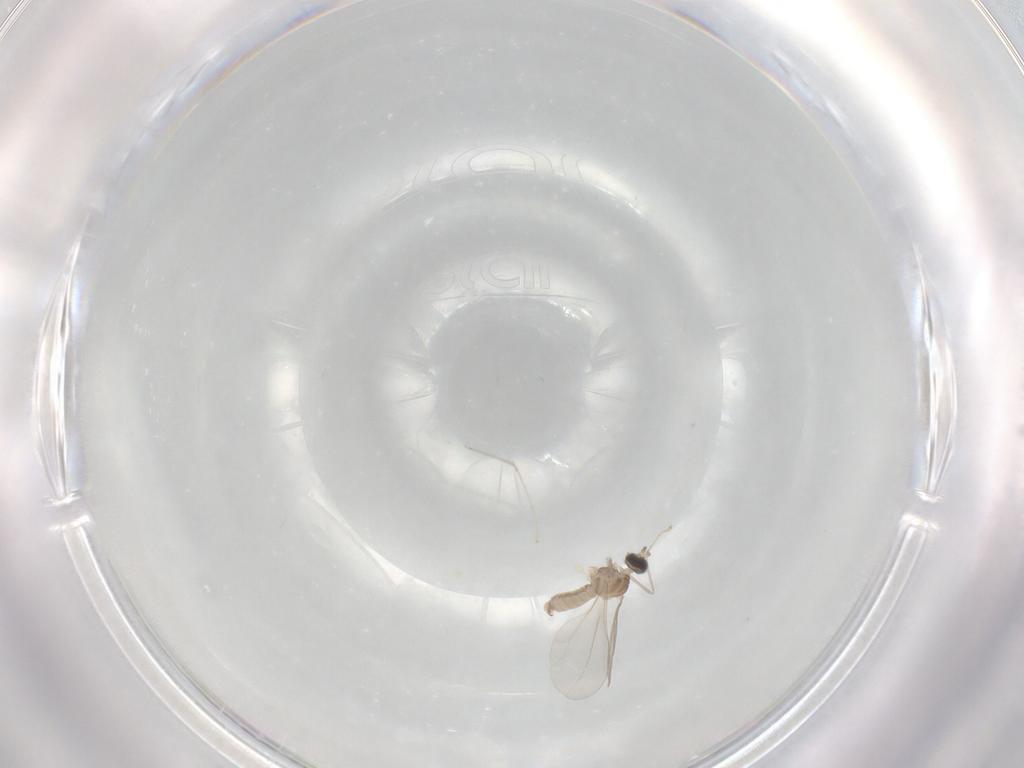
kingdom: Animalia
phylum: Arthropoda
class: Insecta
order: Diptera
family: Cecidomyiidae
